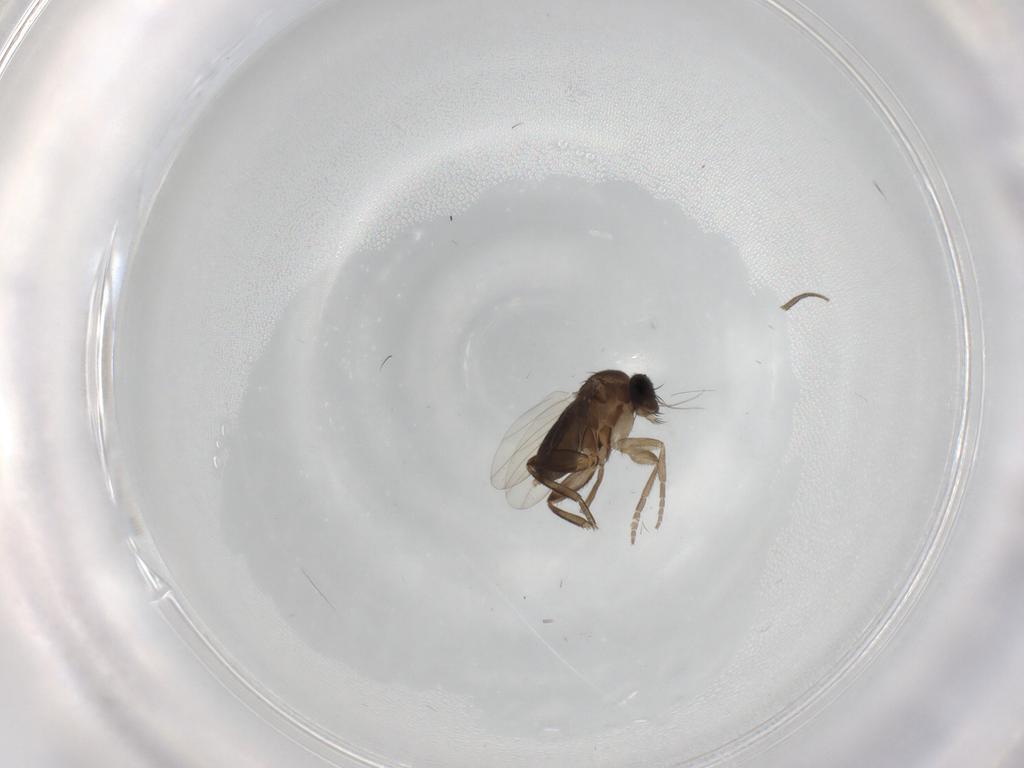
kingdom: Animalia
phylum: Arthropoda
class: Insecta
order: Diptera
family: Phoridae
